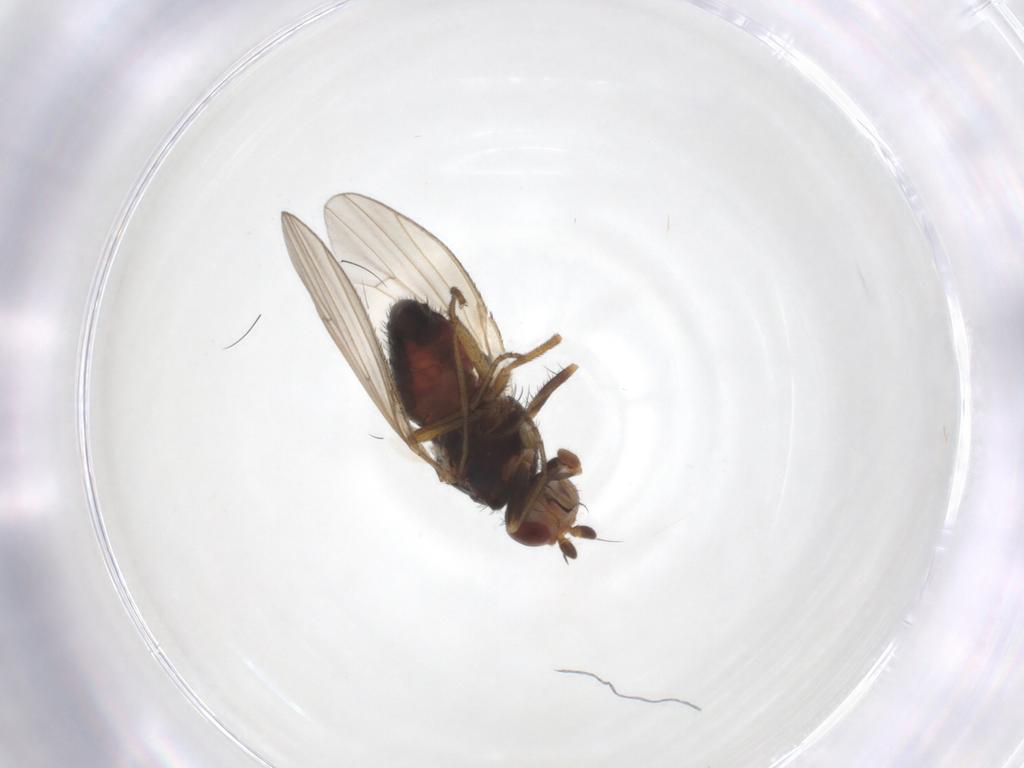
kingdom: Animalia
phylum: Arthropoda
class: Insecta
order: Diptera
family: Heleomyzidae
